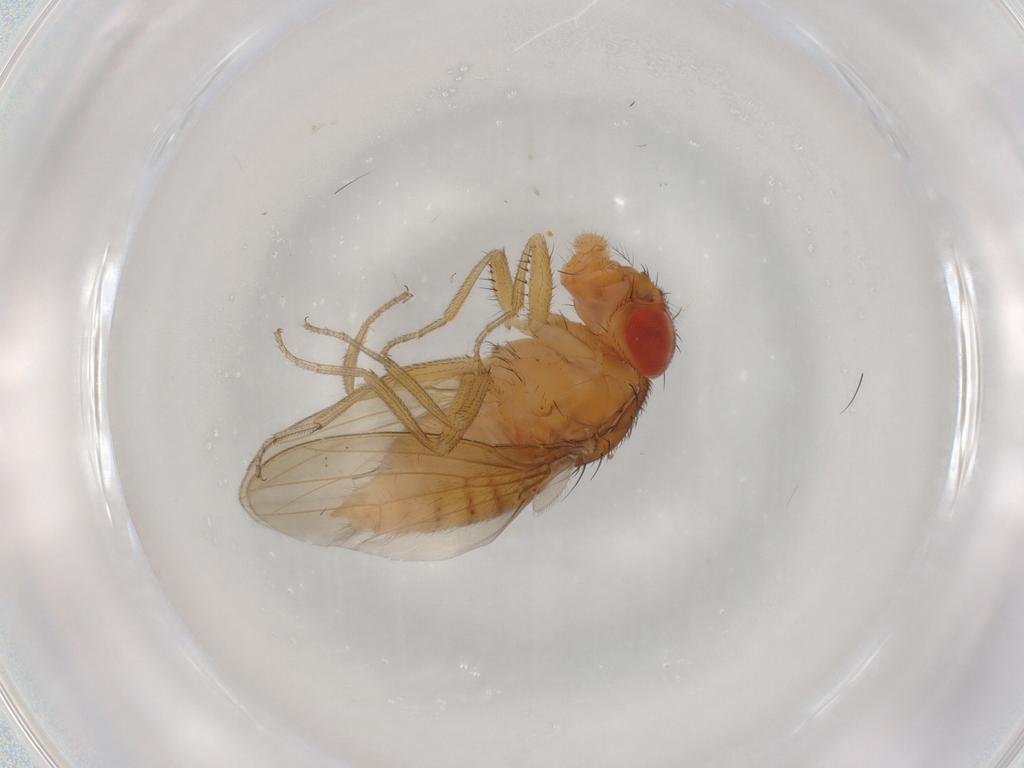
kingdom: Animalia
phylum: Arthropoda
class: Insecta
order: Diptera
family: Drosophilidae
